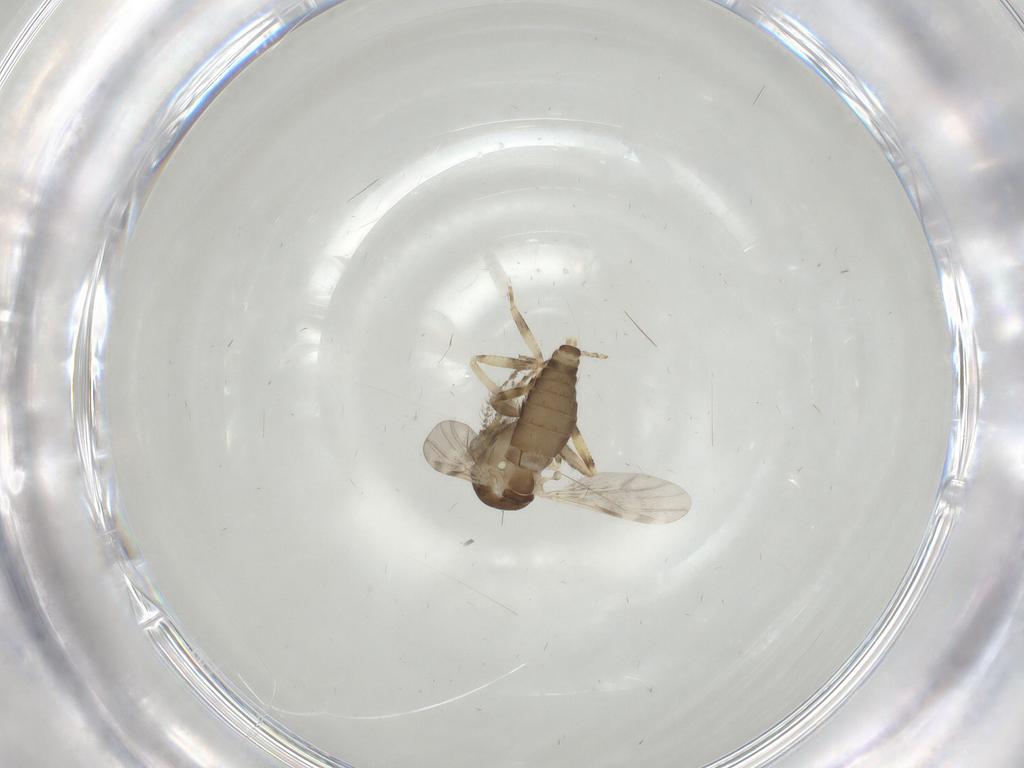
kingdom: Animalia
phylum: Arthropoda
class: Insecta
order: Diptera
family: Ceratopogonidae
